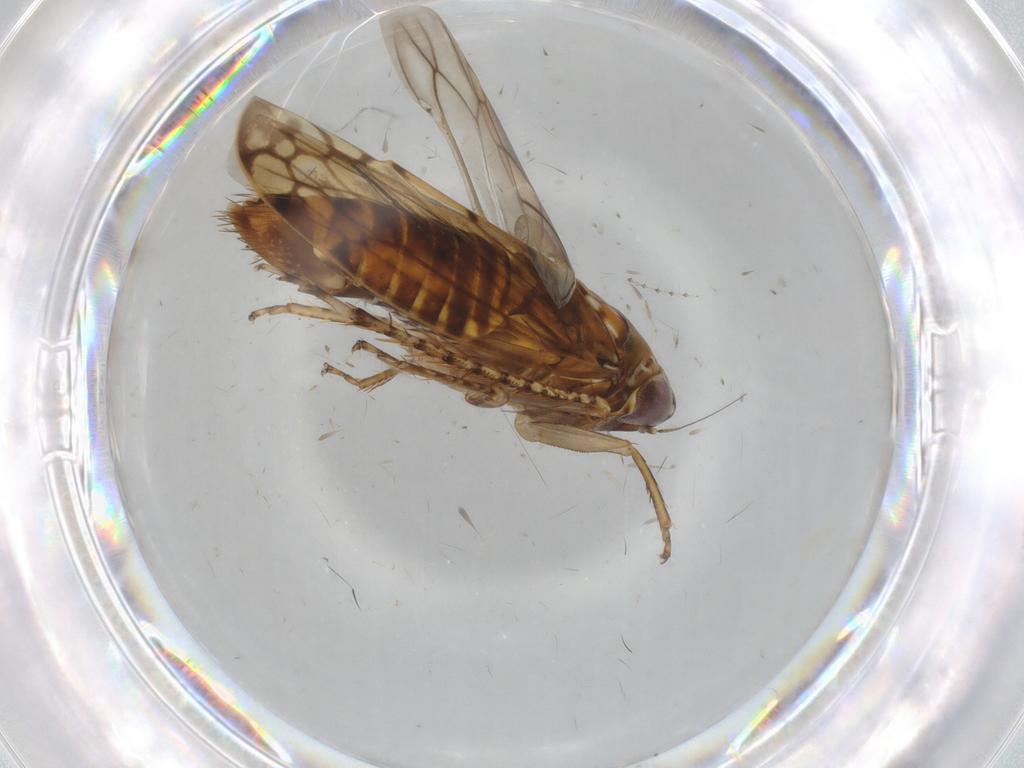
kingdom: Animalia
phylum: Arthropoda
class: Insecta
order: Hemiptera
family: Cicadellidae
